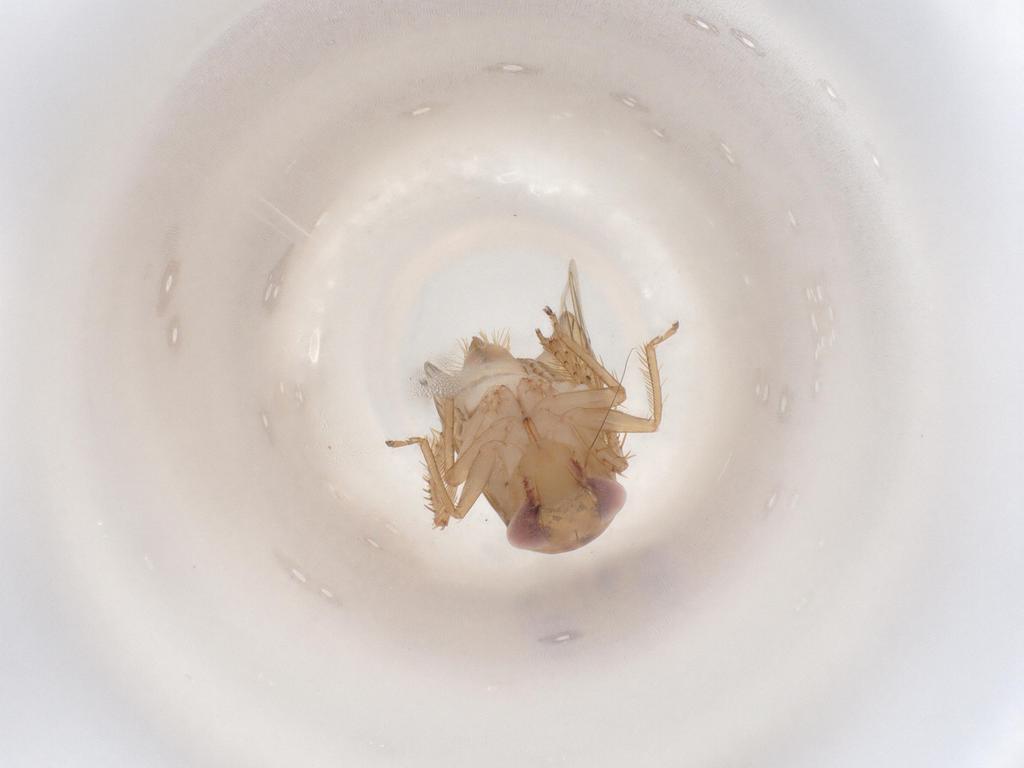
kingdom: Animalia
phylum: Arthropoda
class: Insecta
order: Hemiptera
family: Cicadellidae
